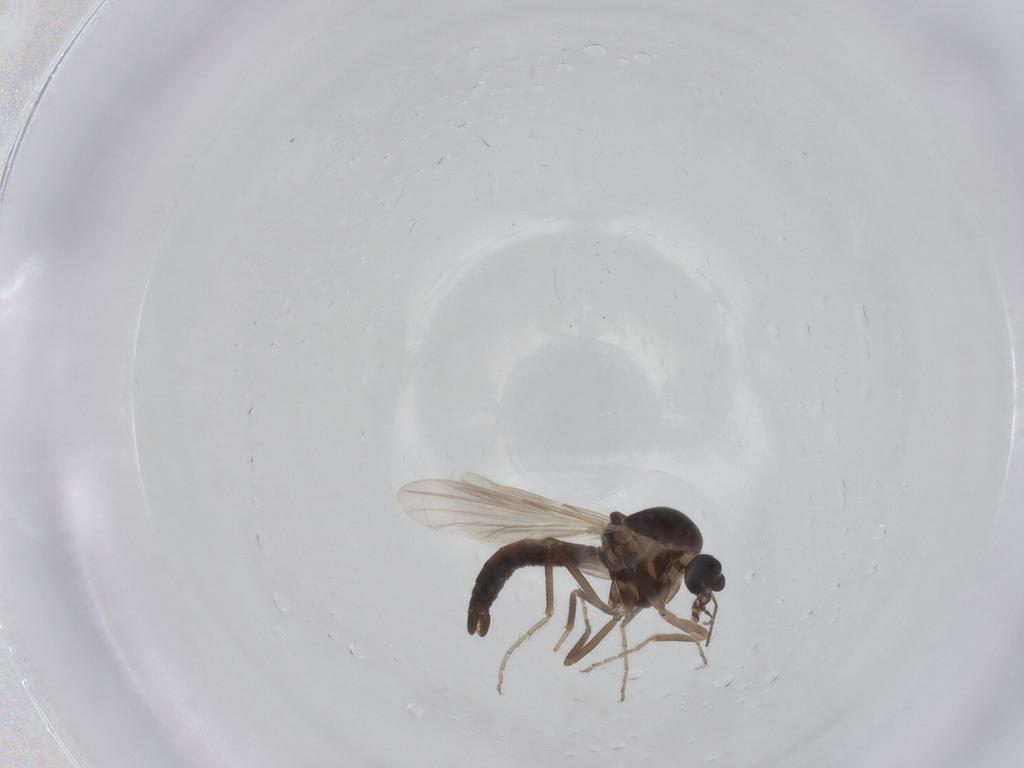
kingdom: Animalia
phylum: Arthropoda
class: Insecta
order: Diptera
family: Ceratopogonidae
